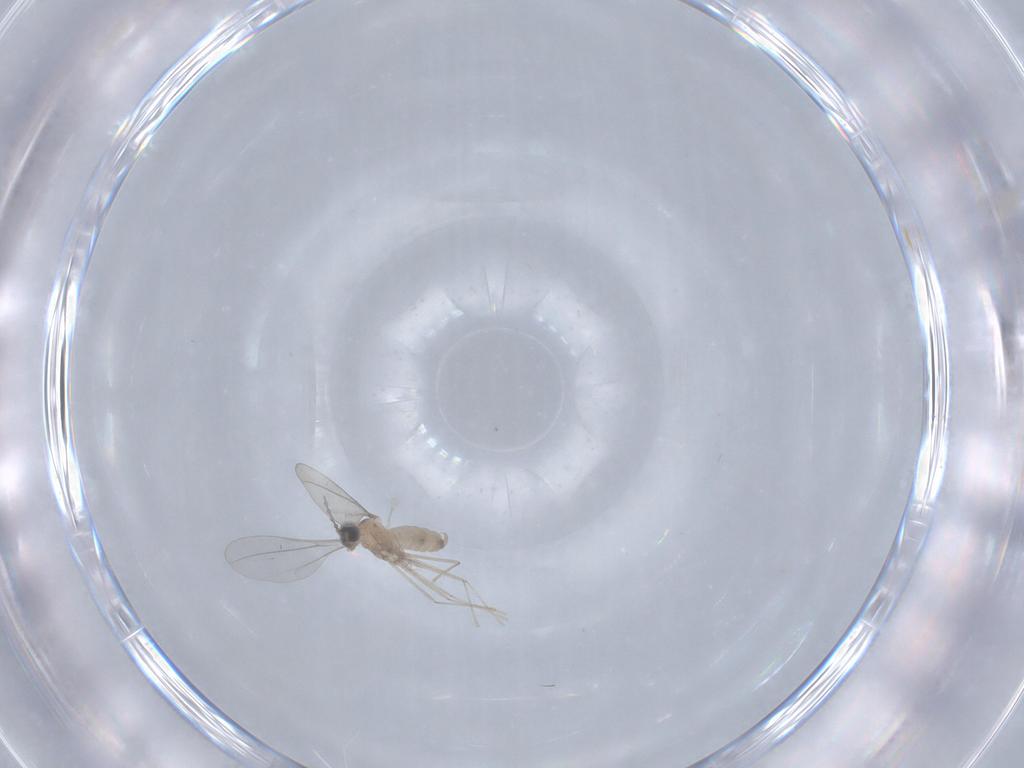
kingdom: Animalia
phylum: Arthropoda
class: Insecta
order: Diptera
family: Cecidomyiidae
